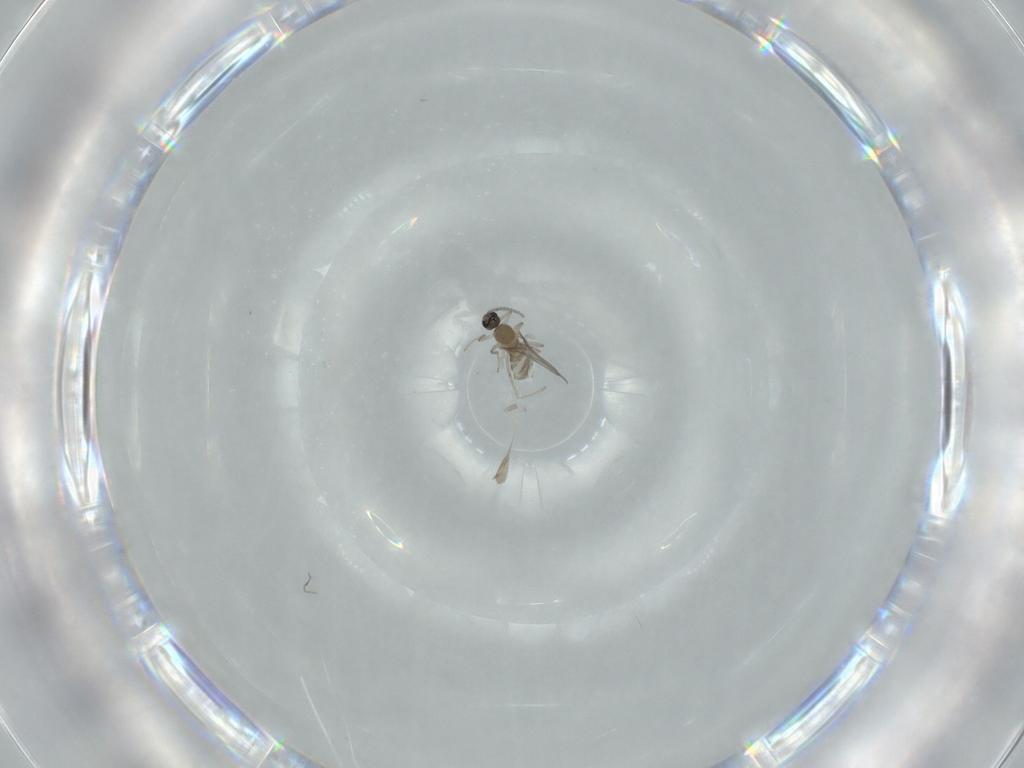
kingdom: Animalia
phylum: Arthropoda
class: Insecta
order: Diptera
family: Cecidomyiidae
